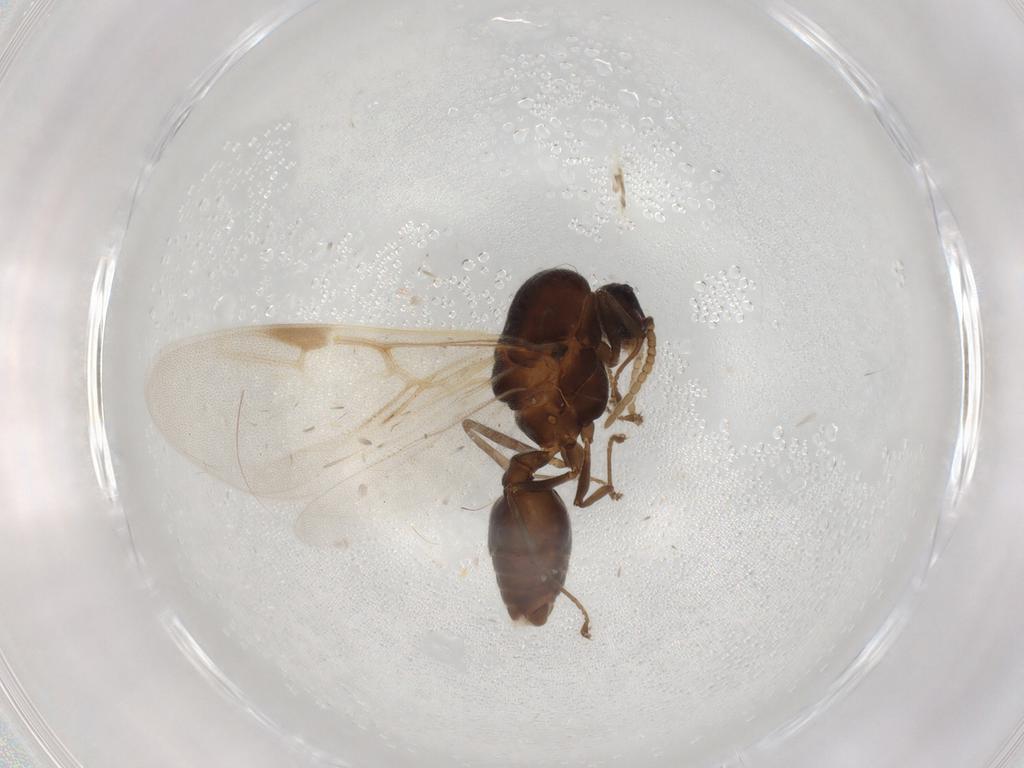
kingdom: Animalia
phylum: Arthropoda
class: Insecta
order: Hymenoptera
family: Formicidae
